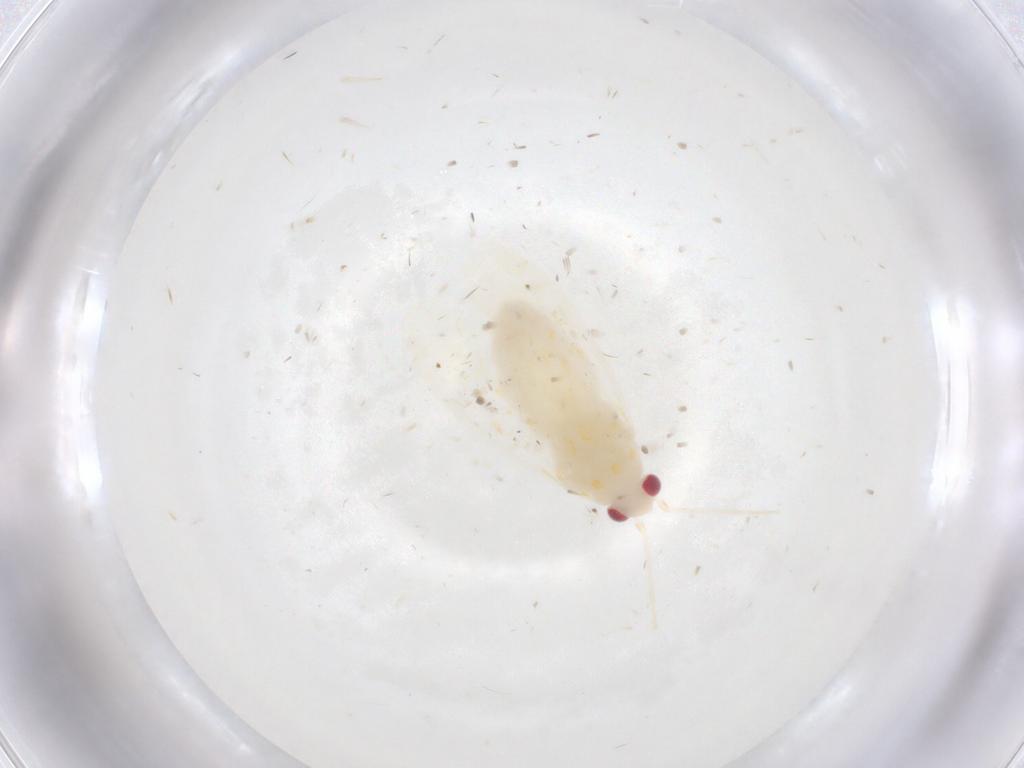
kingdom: Animalia
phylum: Arthropoda
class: Insecta
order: Hemiptera
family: Miridae
